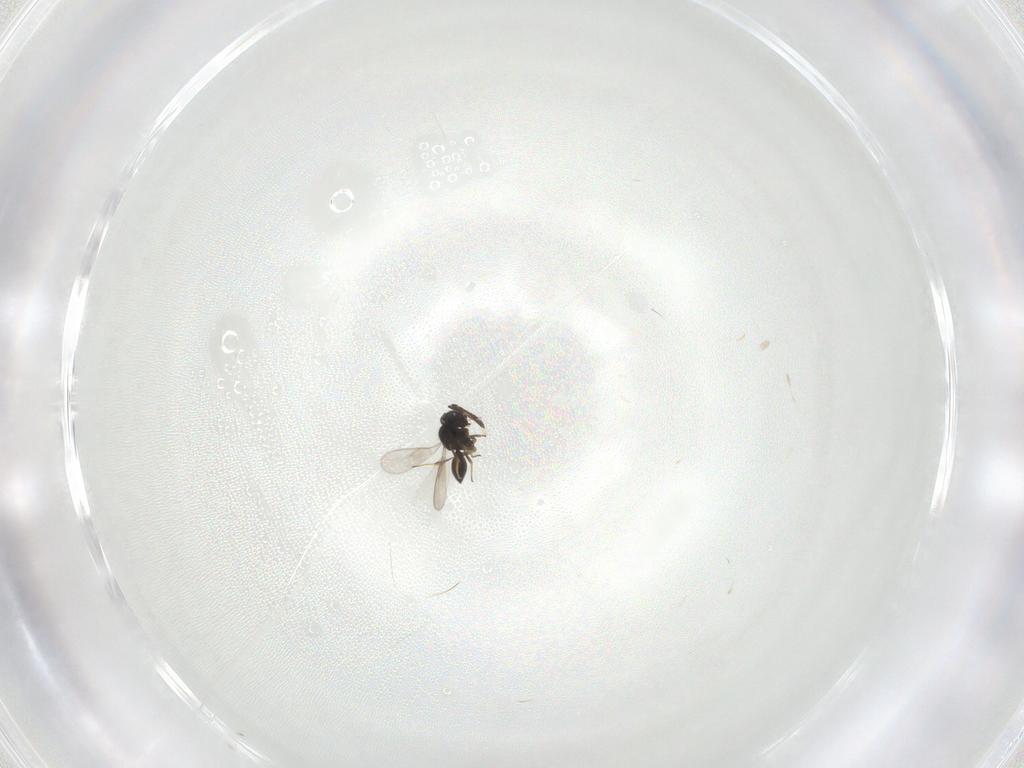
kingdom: Animalia
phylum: Arthropoda
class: Insecta
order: Hymenoptera
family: Scelionidae
